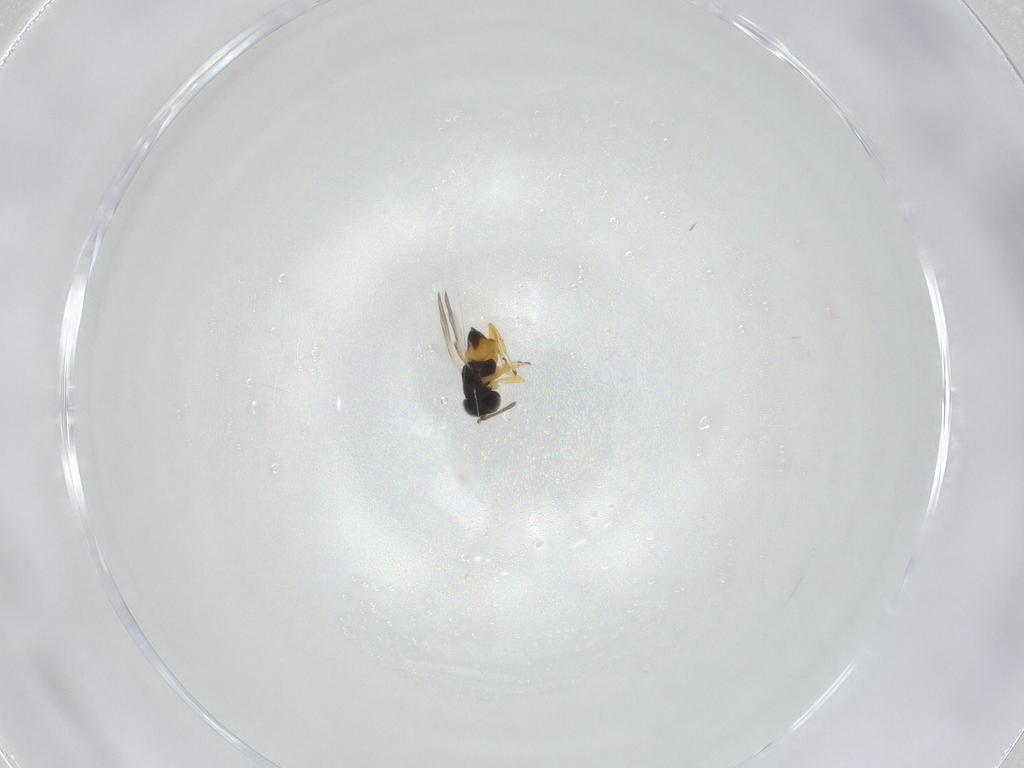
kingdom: Animalia
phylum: Arthropoda
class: Insecta
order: Hymenoptera
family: Encyrtidae
